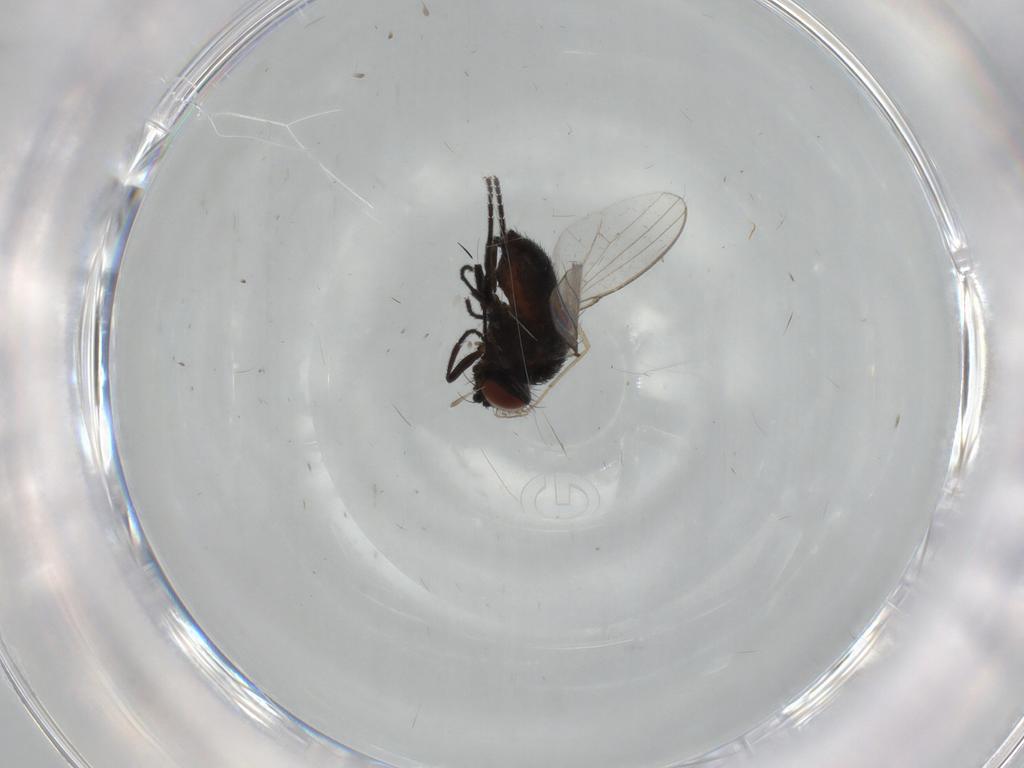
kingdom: Animalia
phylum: Arthropoda
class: Insecta
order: Diptera
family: Milichiidae
